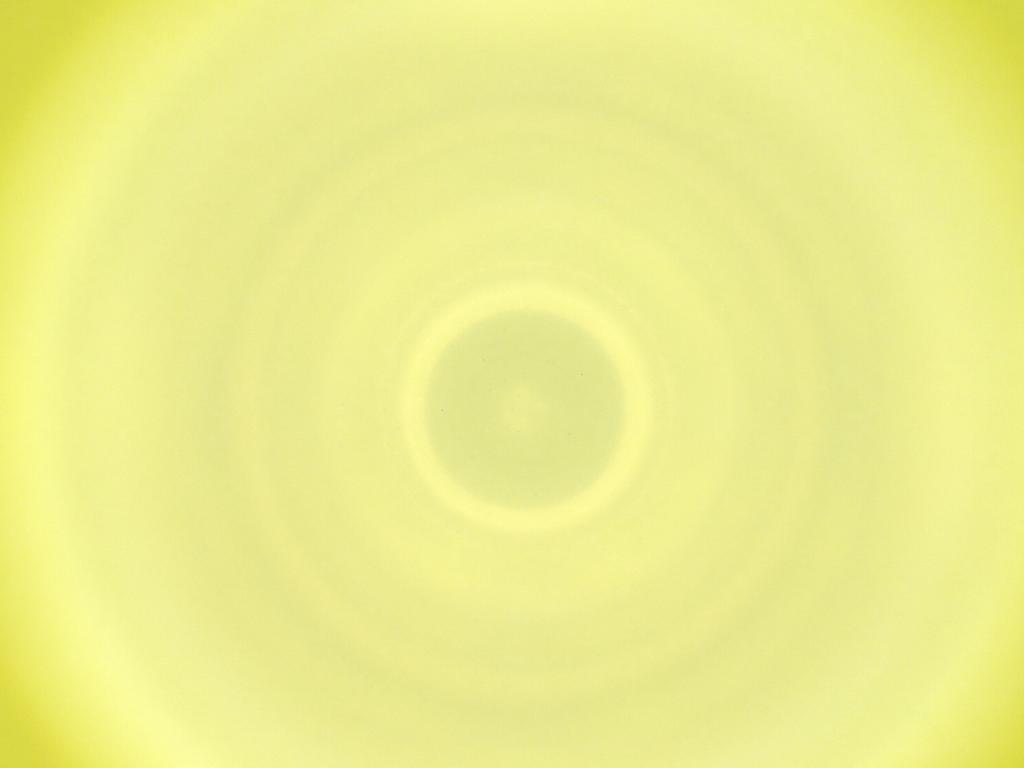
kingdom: Animalia
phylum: Arthropoda
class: Insecta
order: Diptera
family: Cecidomyiidae
